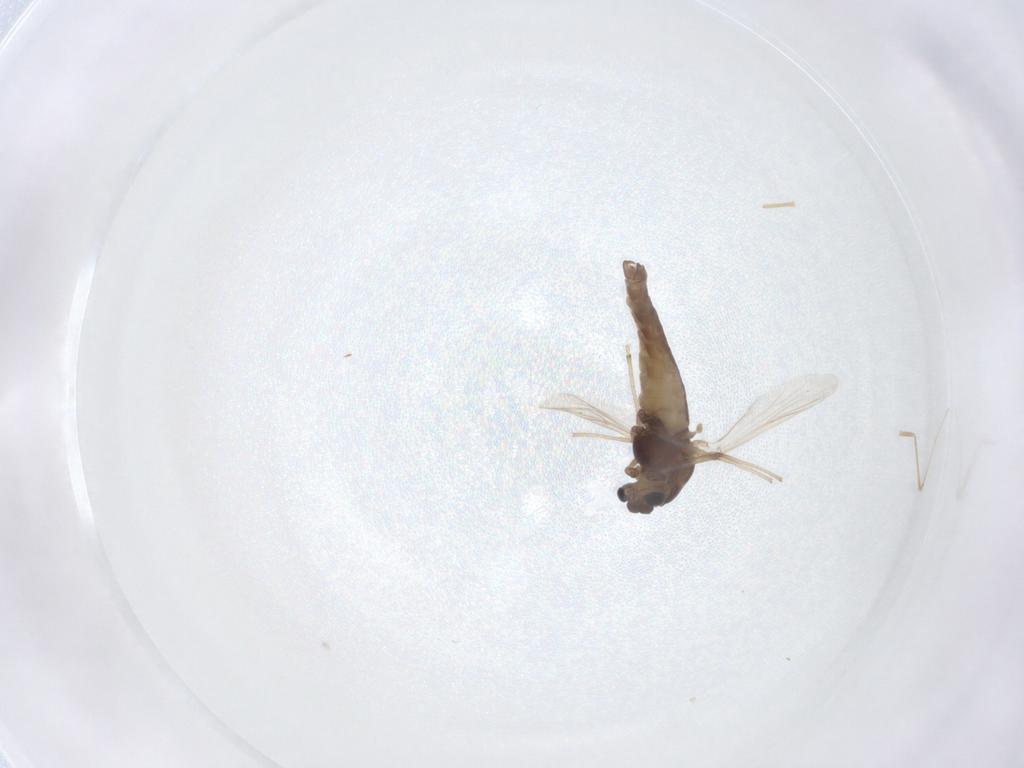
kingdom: Animalia
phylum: Arthropoda
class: Insecta
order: Diptera
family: Chironomidae
